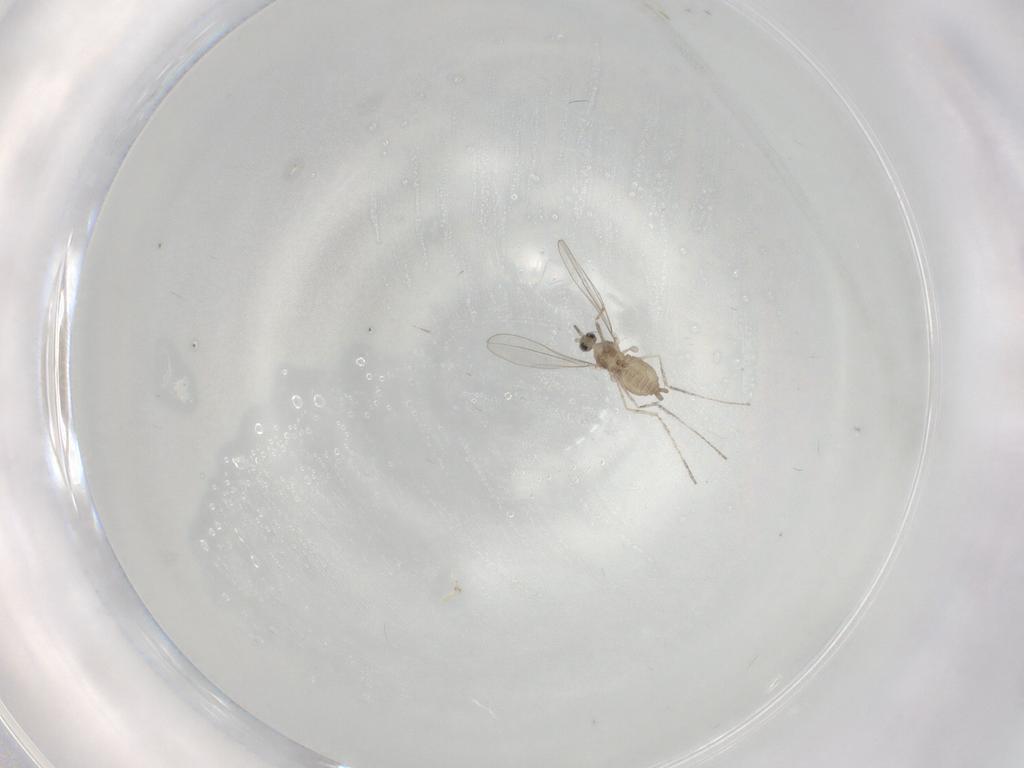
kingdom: Animalia
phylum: Arthropoda
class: Insecta
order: Diptera
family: Cecidomyiidae
